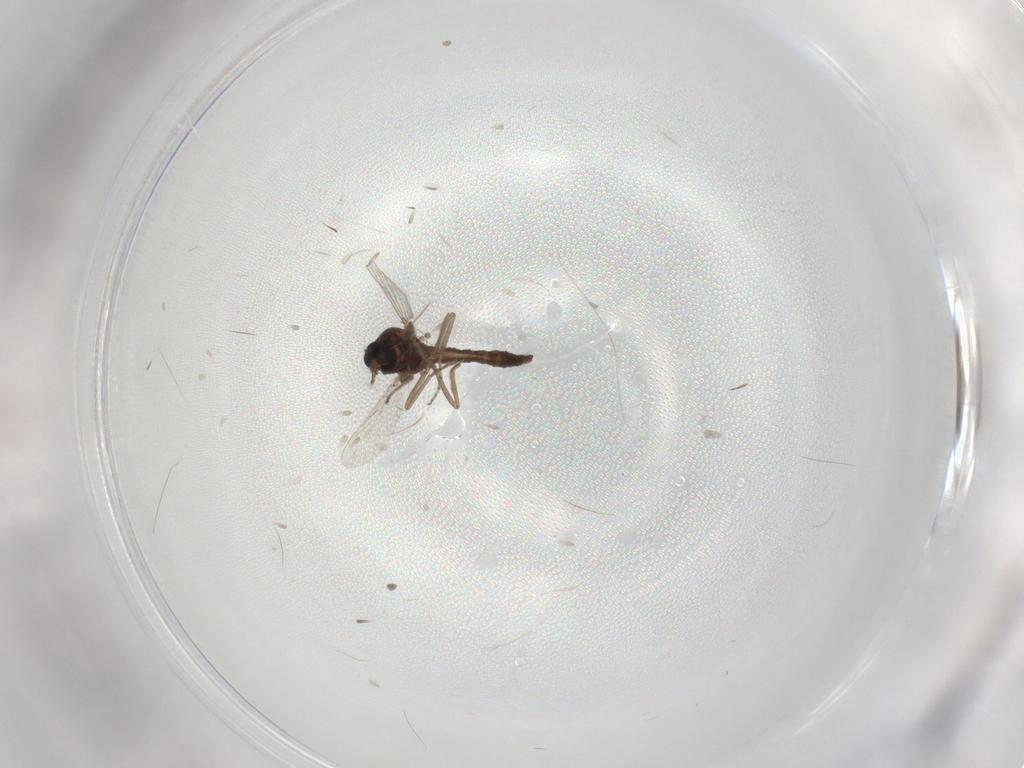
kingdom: Animalia
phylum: Arthropoda
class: Insecta
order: Diptera
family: Ceratopogonidae
